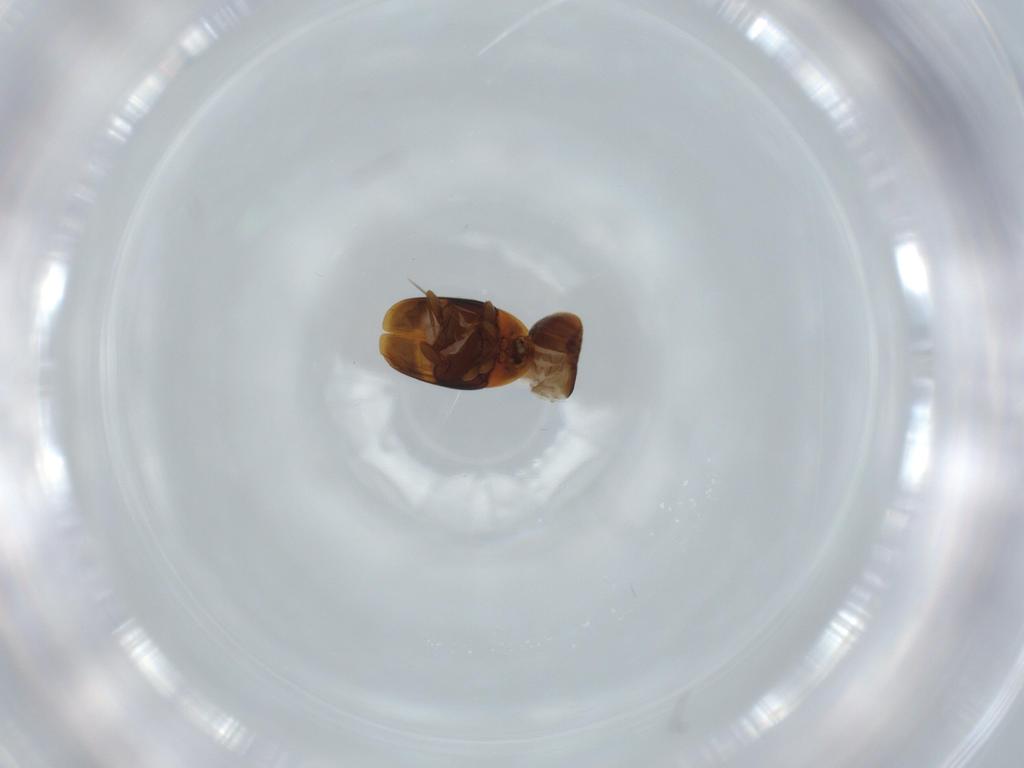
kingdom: Animalia
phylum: Arthropoda
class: Insecta
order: Coleoptera
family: Corylophidae
